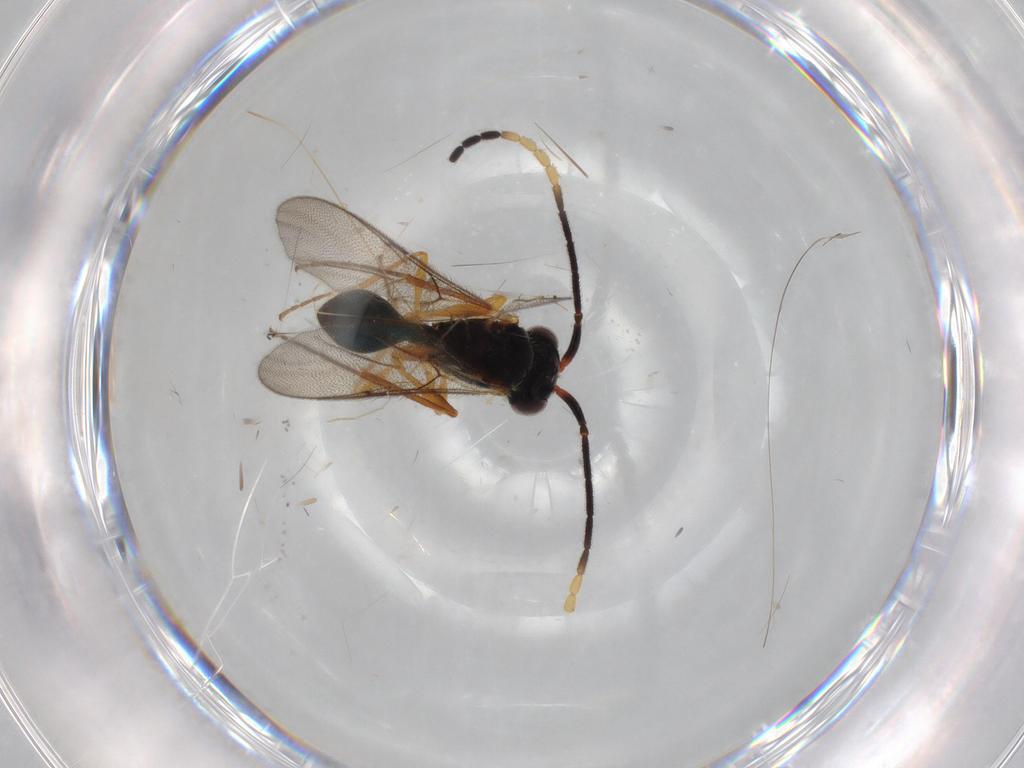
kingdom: Animalia
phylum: Arthropoda
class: Insecta
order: Hymenoptera
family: Diapriidae
